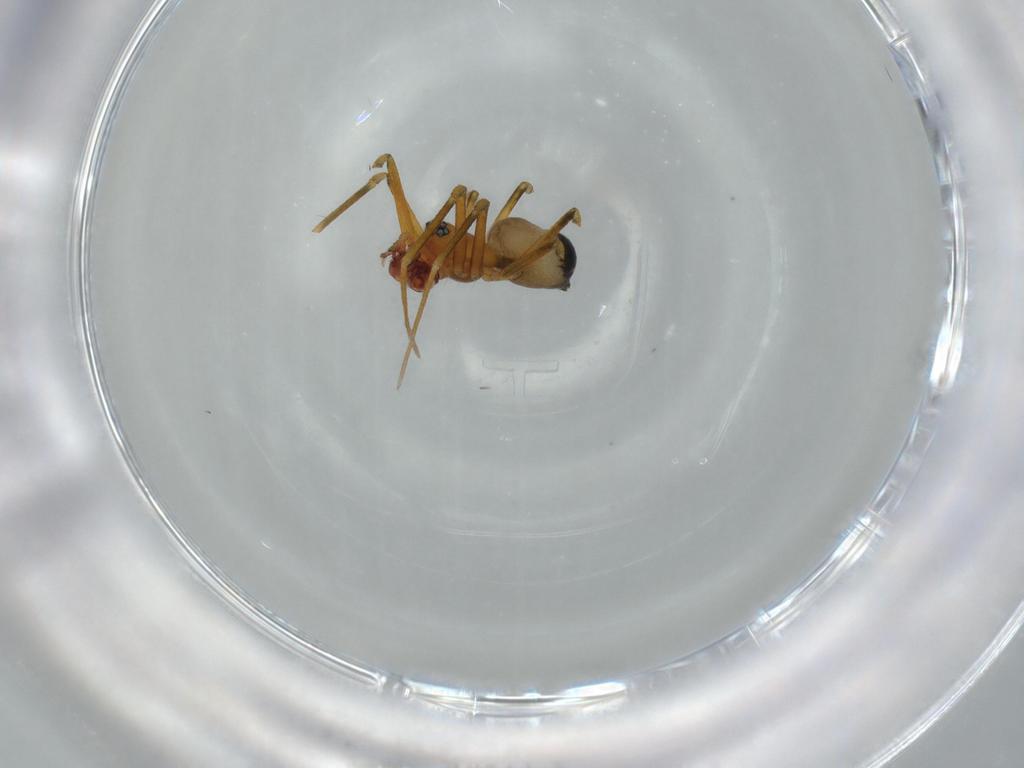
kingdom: Animalia
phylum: Arthropoda
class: Arachnida
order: Araneae
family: Linyphiidae
